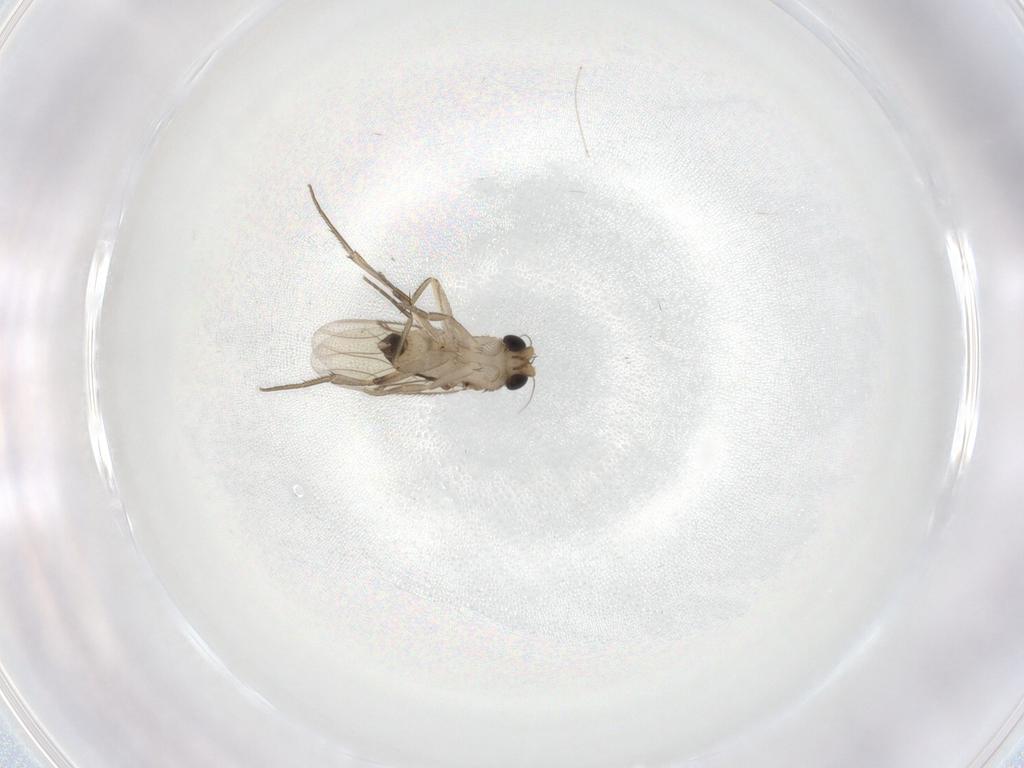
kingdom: Animalia
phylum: Arthropoda
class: Insecta
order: Diptera
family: Phoridae
